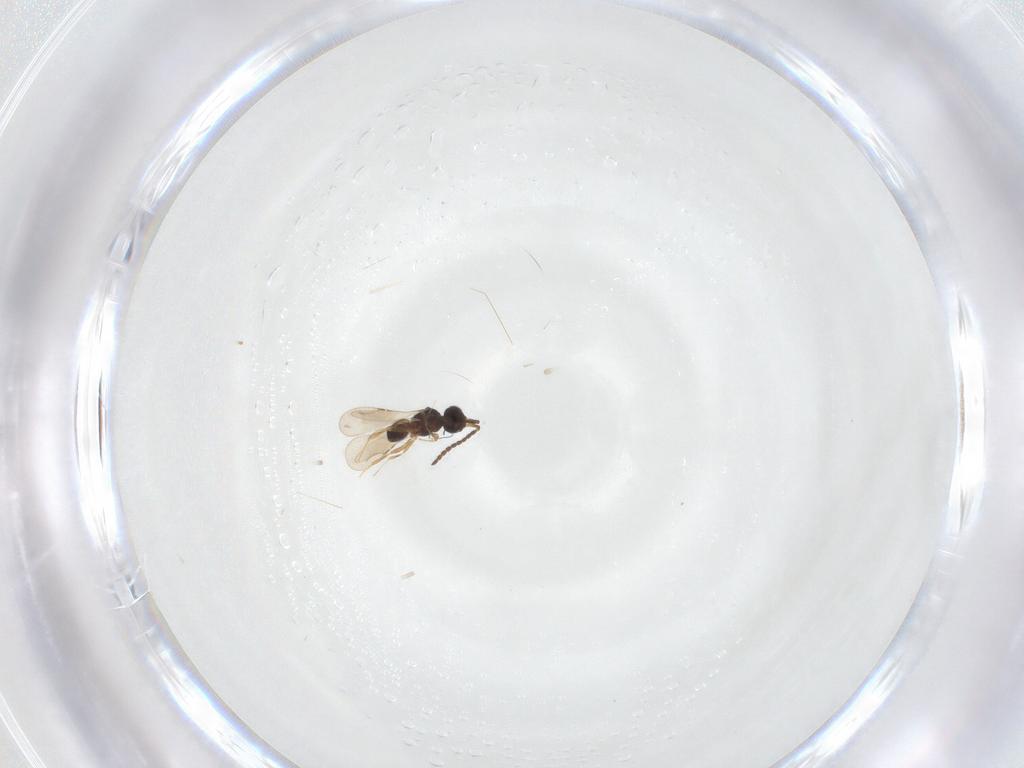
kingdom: Animalia
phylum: Arthropoda
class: Insecta
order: Hymenoptera
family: Ceraphronidae
